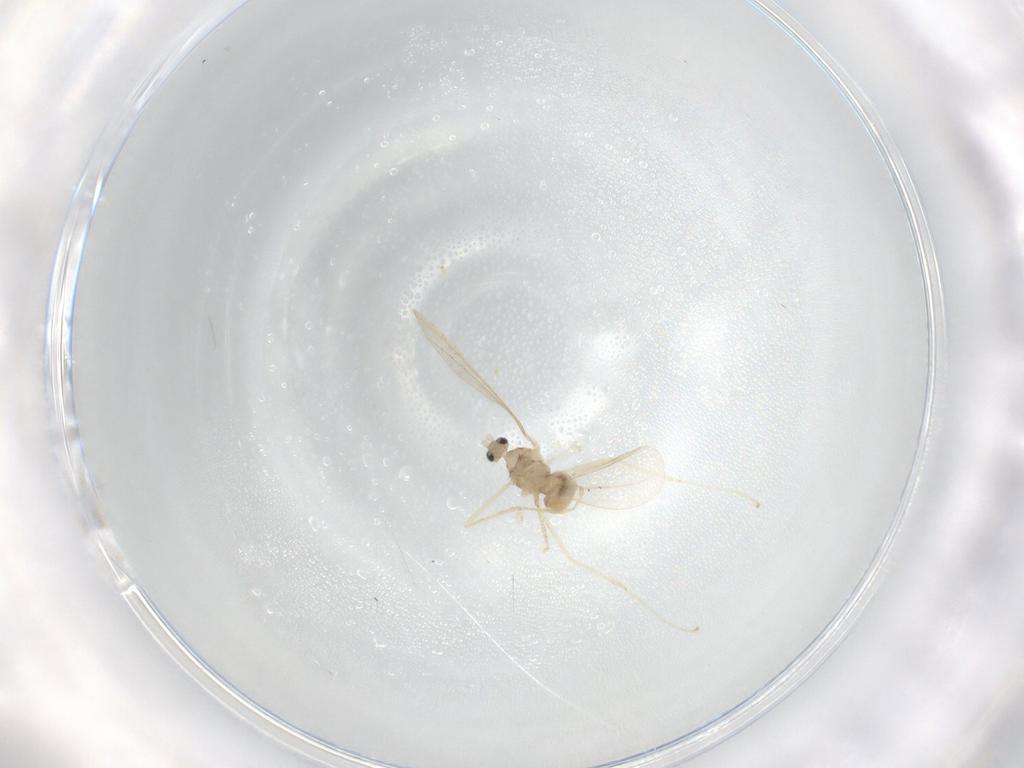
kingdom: Animalia
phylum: Arthropoda
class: Insecta
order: Diptera
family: Cecidomyiidae
